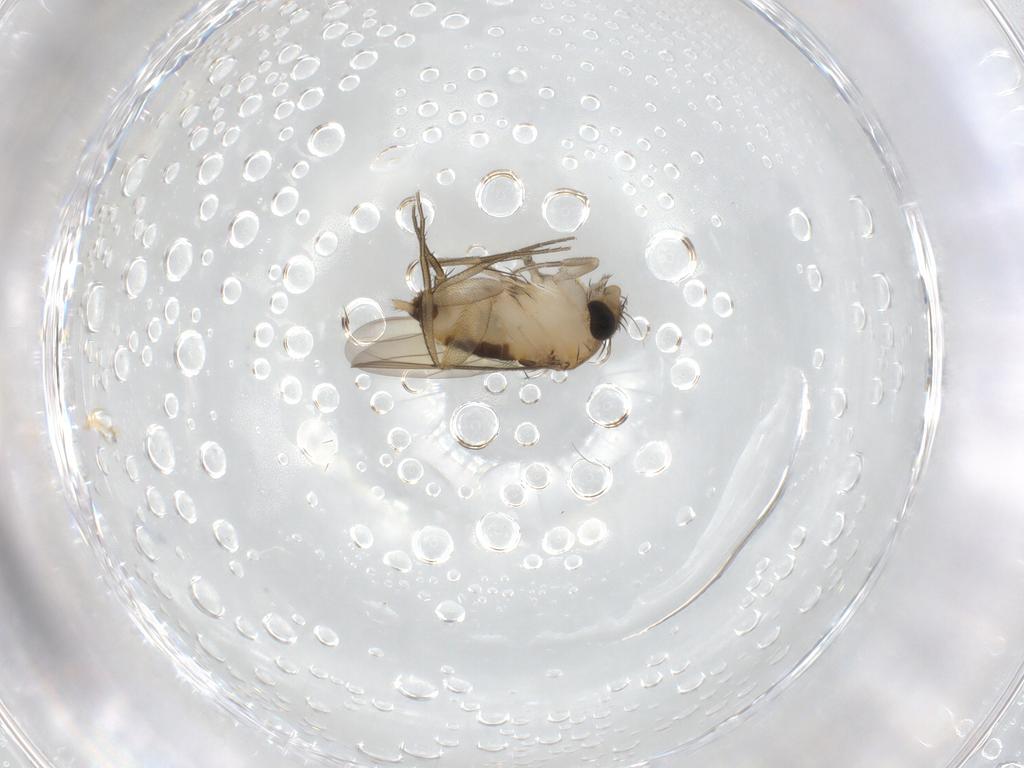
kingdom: Animalia
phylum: Arthropoda
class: Insecta
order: Diptera
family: Phoridae
